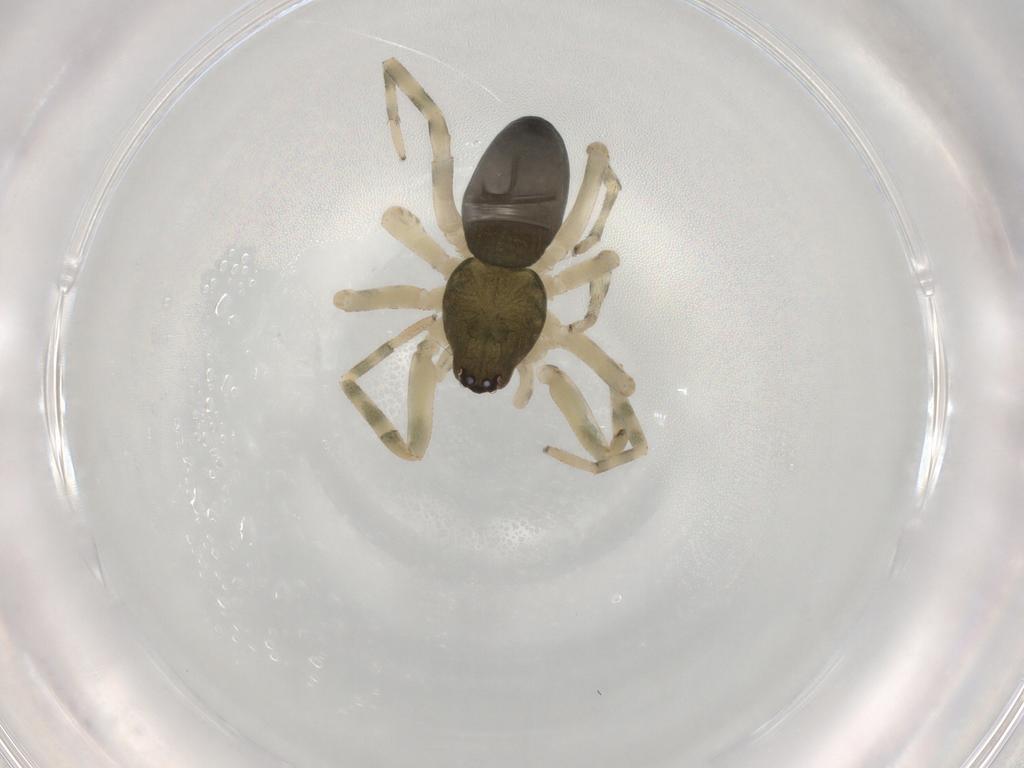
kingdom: Animalia
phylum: Arthropoda
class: Arachnida
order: Araneae
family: Trachelidae
